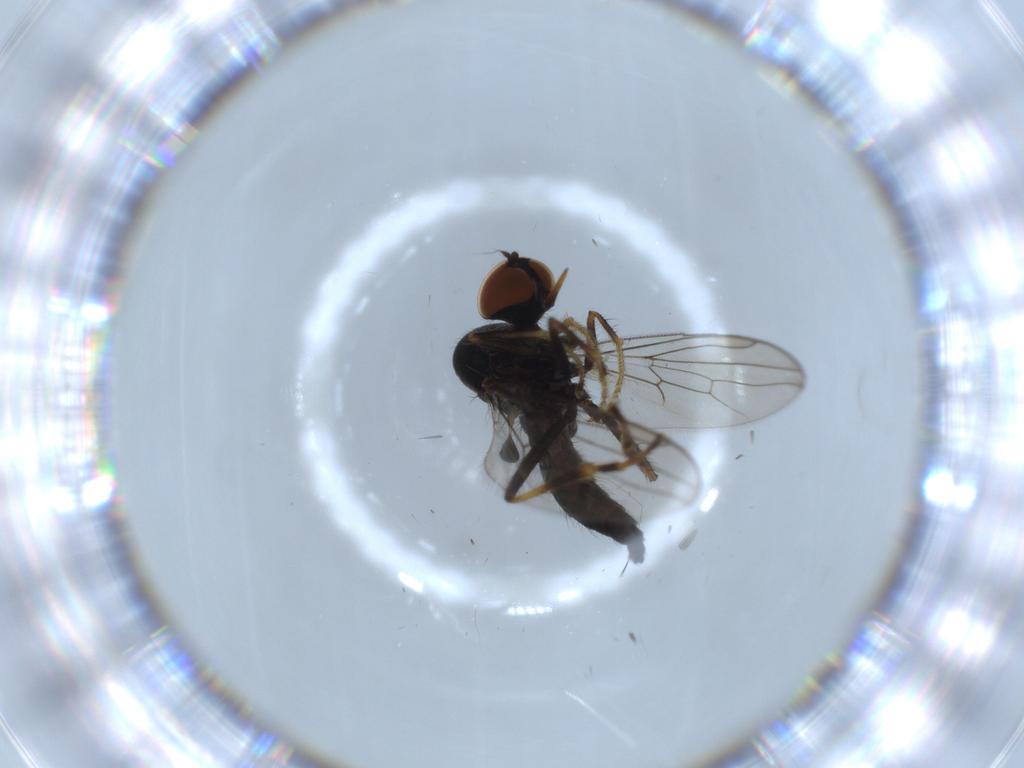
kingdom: Animalia
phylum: Arthropoda
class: Insecta
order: Diptera
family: Hybotidae
